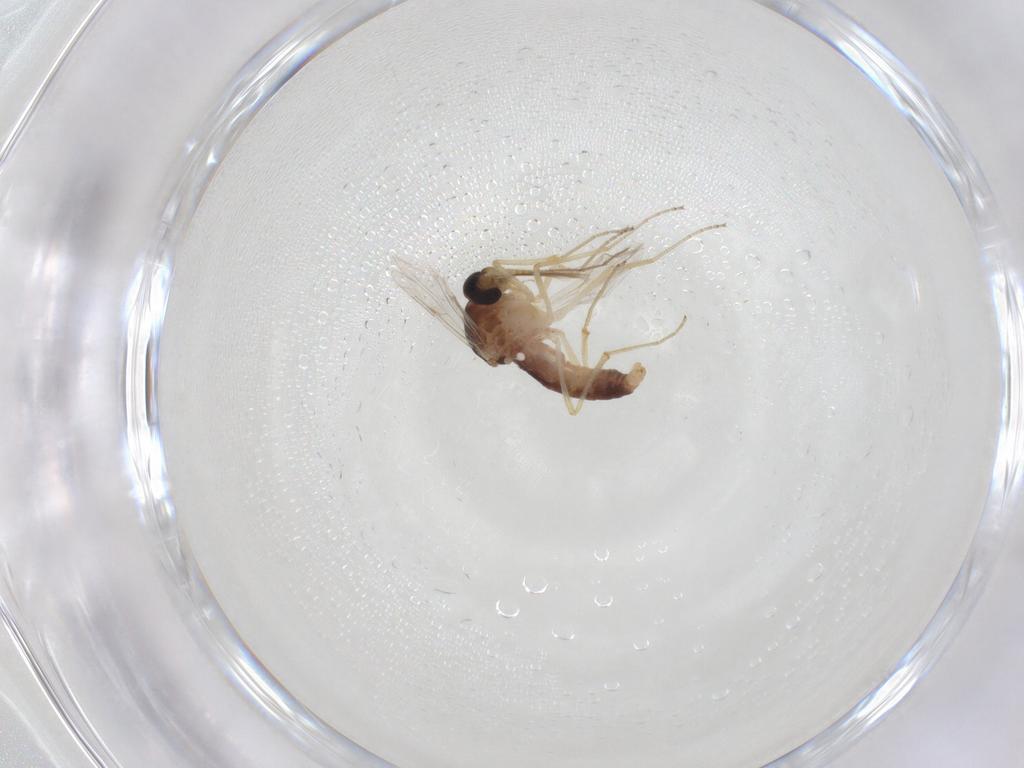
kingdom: Animalia
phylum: Arthropoda
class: Insecta
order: Diptera
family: Ceratopogonidae
